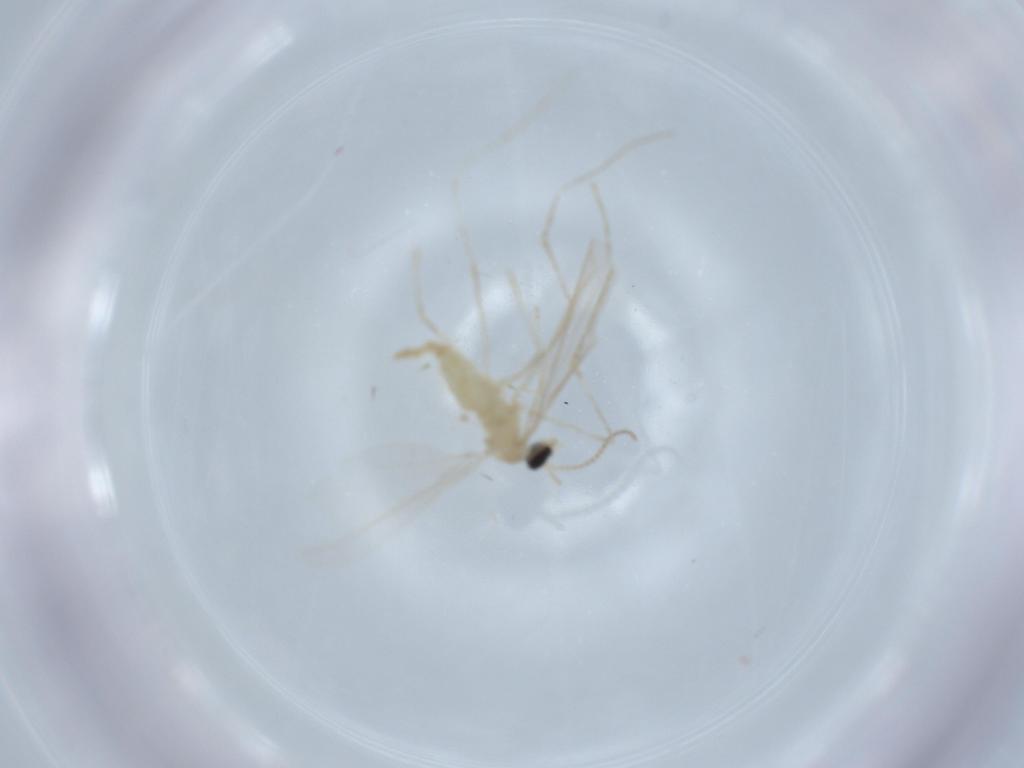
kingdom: Animalia
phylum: Arthropoda
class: Insecta
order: Diptera
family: Cecidomyiidae
